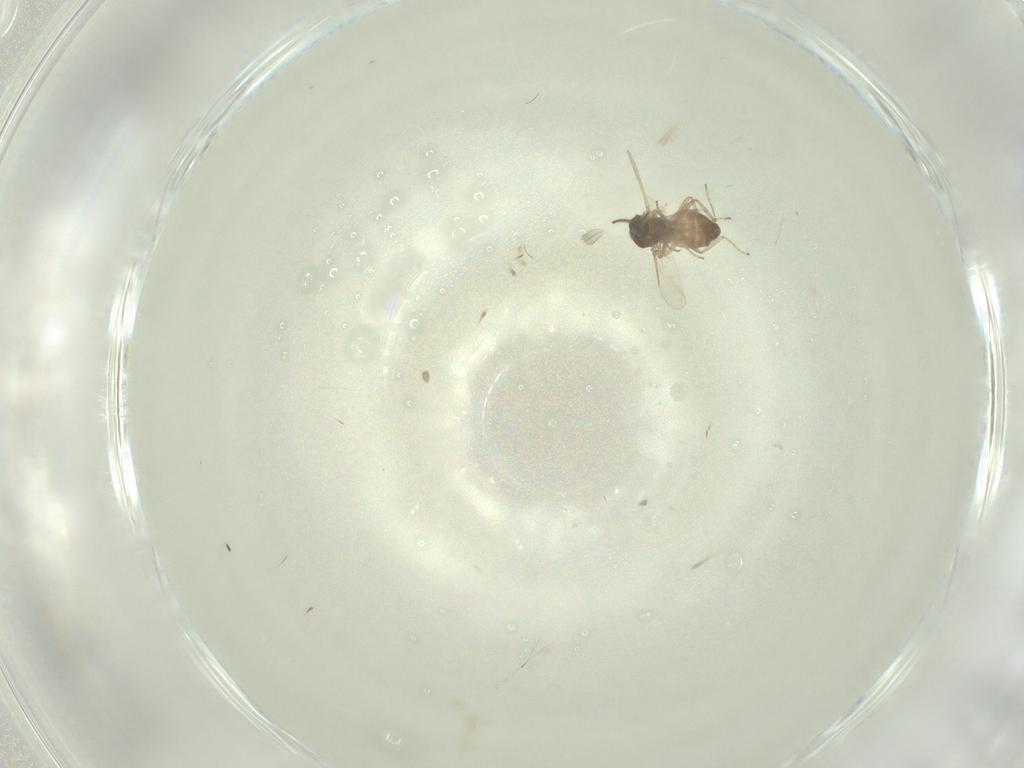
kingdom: Animalia
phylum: Arthropoda
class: Insecta
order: Diptera
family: Ceratopogonidae
